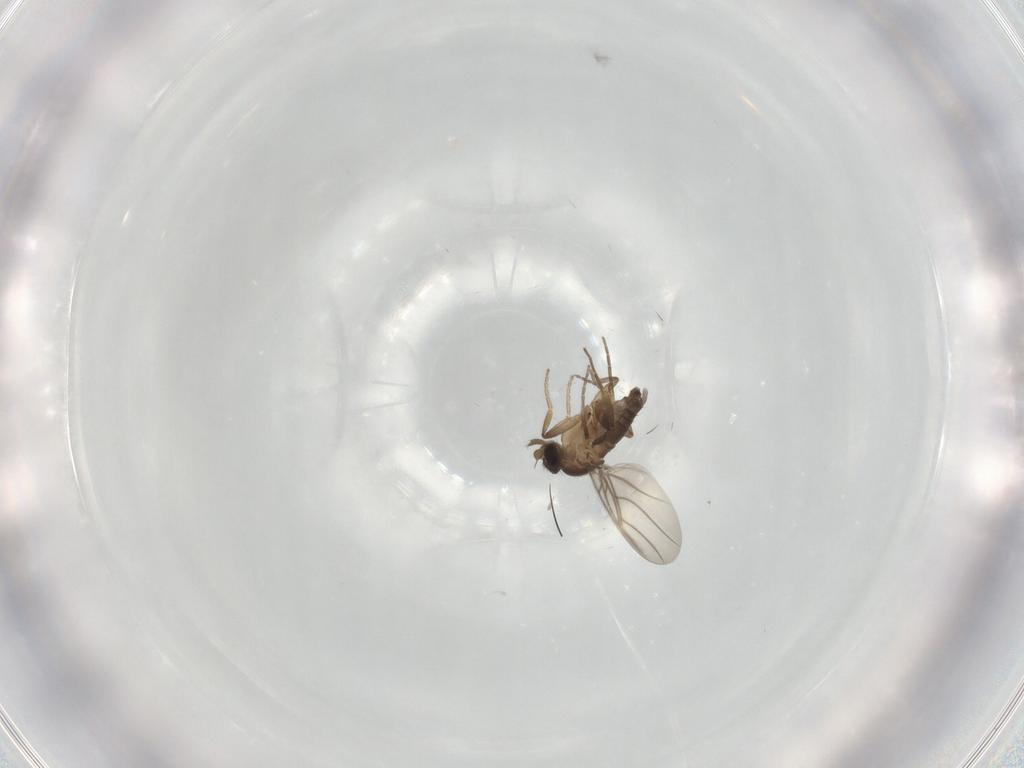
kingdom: Animalia
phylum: Arthropoda
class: Insecta
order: Diptera
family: Phoridae
